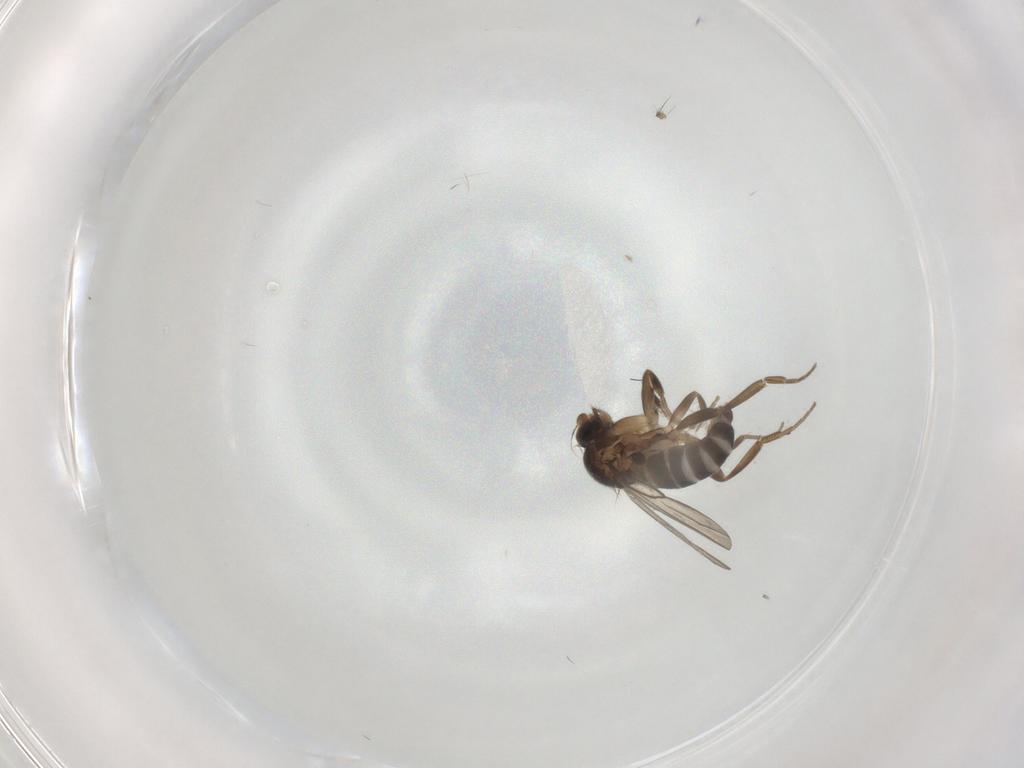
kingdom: Animalia
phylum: Arthropoda
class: Insecta
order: Diptera
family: Phoridae
